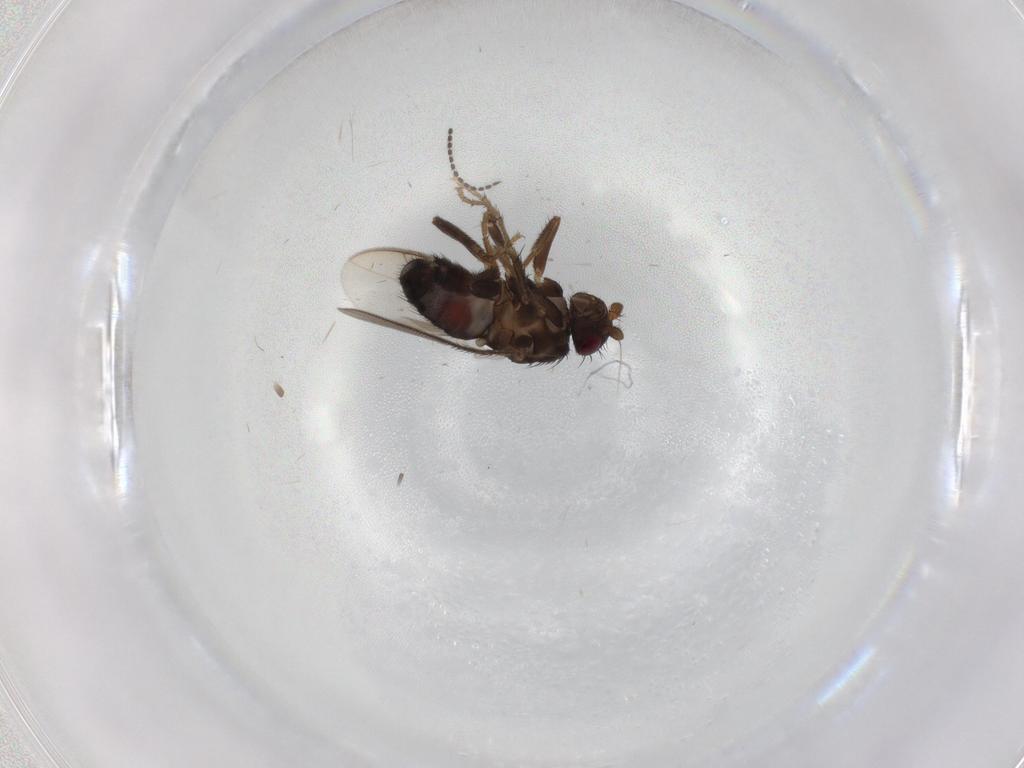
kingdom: Animalia
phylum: Arthropoda
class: Insecta
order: Diptera
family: Sphaeroceridae
